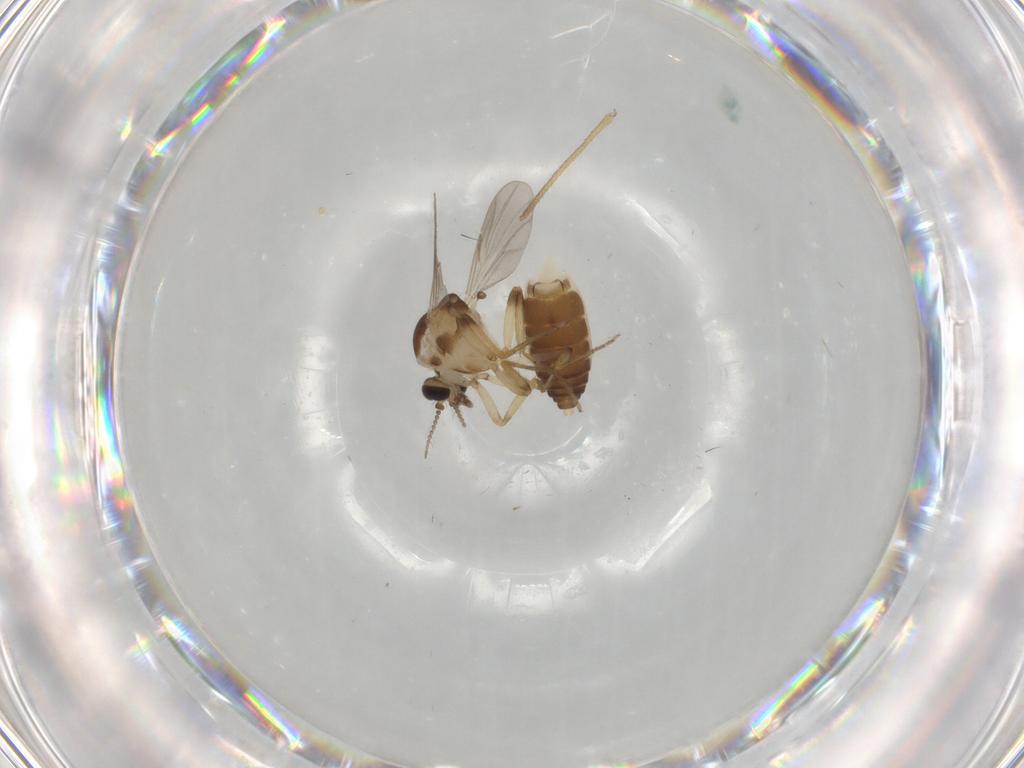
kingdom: Animalia
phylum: Arthropoda
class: Insecta
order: Diptera
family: Ceratopogonidae
